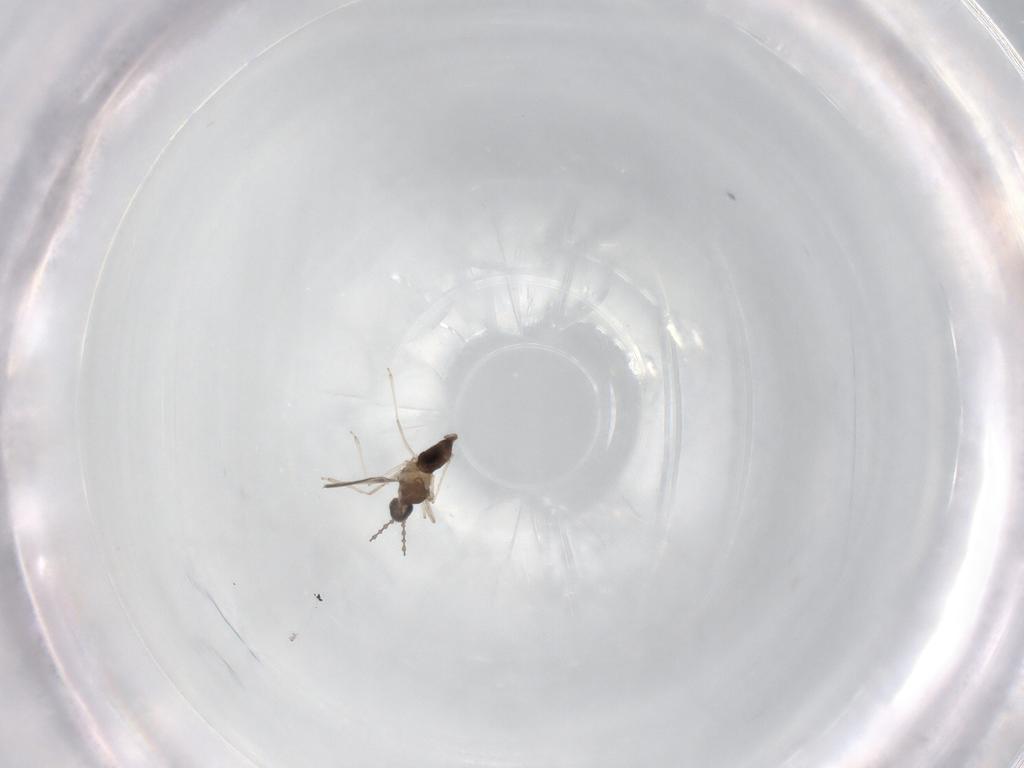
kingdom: Animalia
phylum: Arthropoda
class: Insecta
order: Diptera
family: Cecidomyiidae
